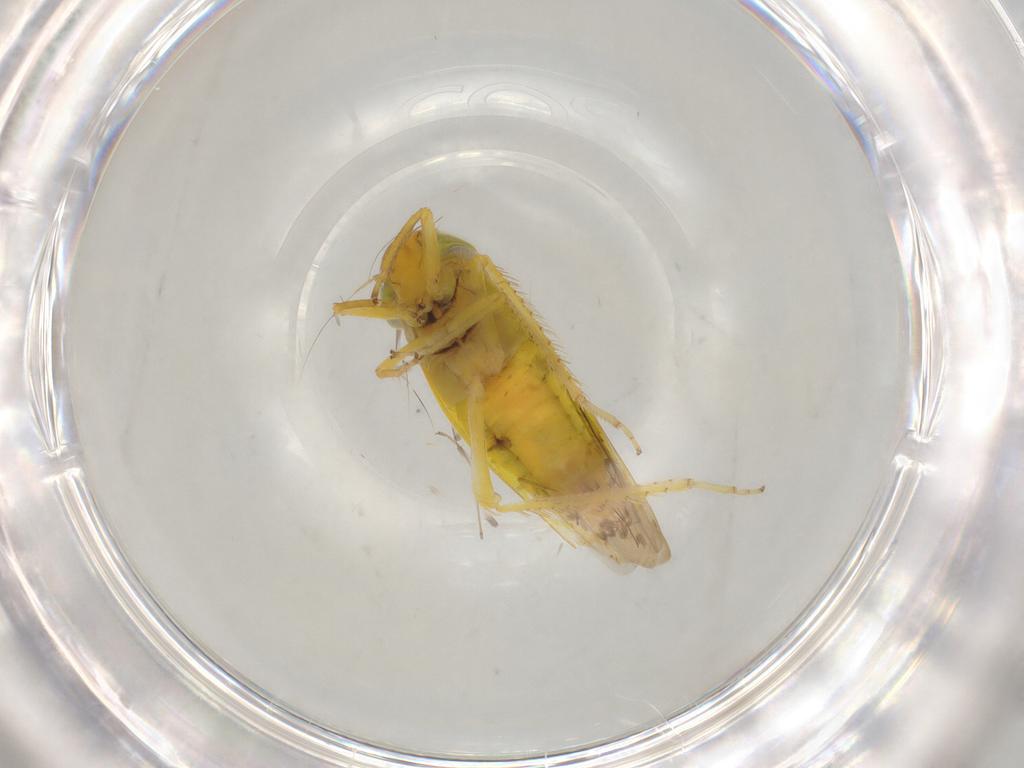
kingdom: Animalia
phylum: Arthropoda
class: Insecta
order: Hemiptera
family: Cicadellidae
